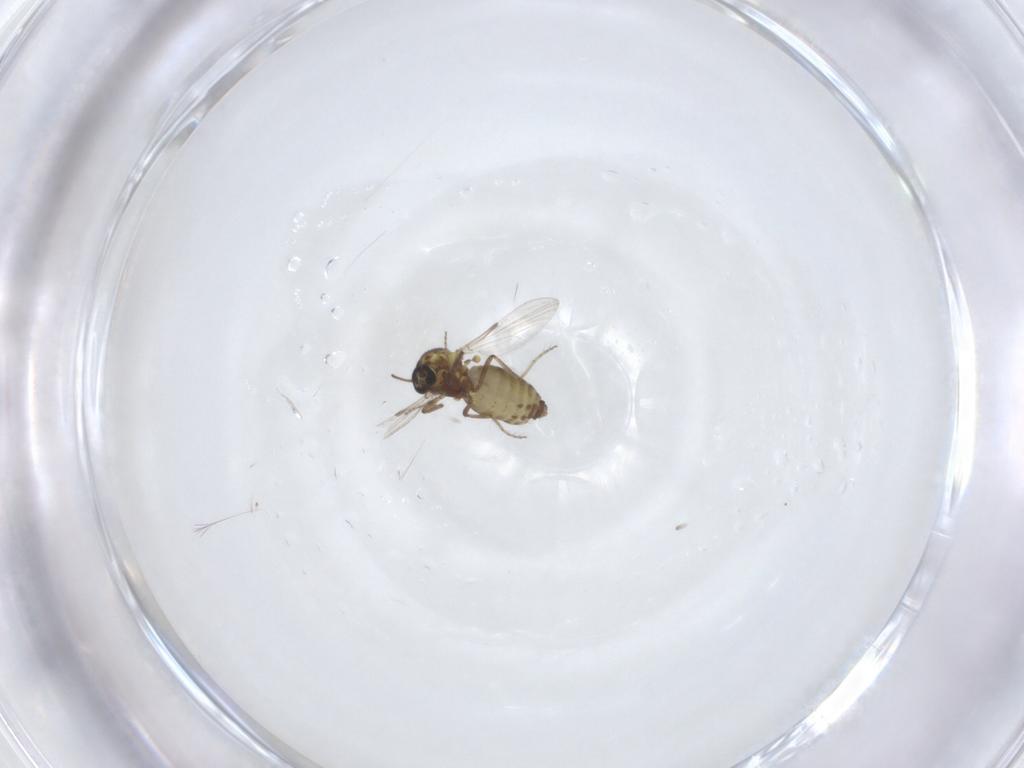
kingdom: Animalia
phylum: Arthropoda
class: Insecta
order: Diptera
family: Ceratopogonidae
